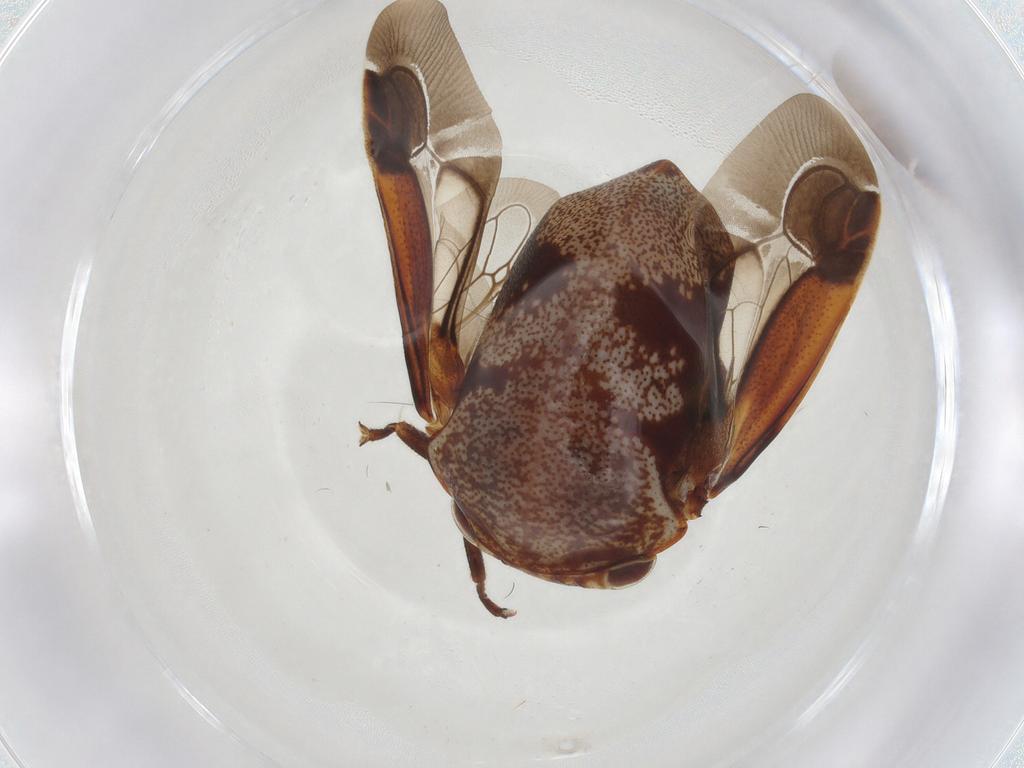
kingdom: Animalia
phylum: Arthropoda
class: Insecta
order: Hemiptera
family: Membracidae
